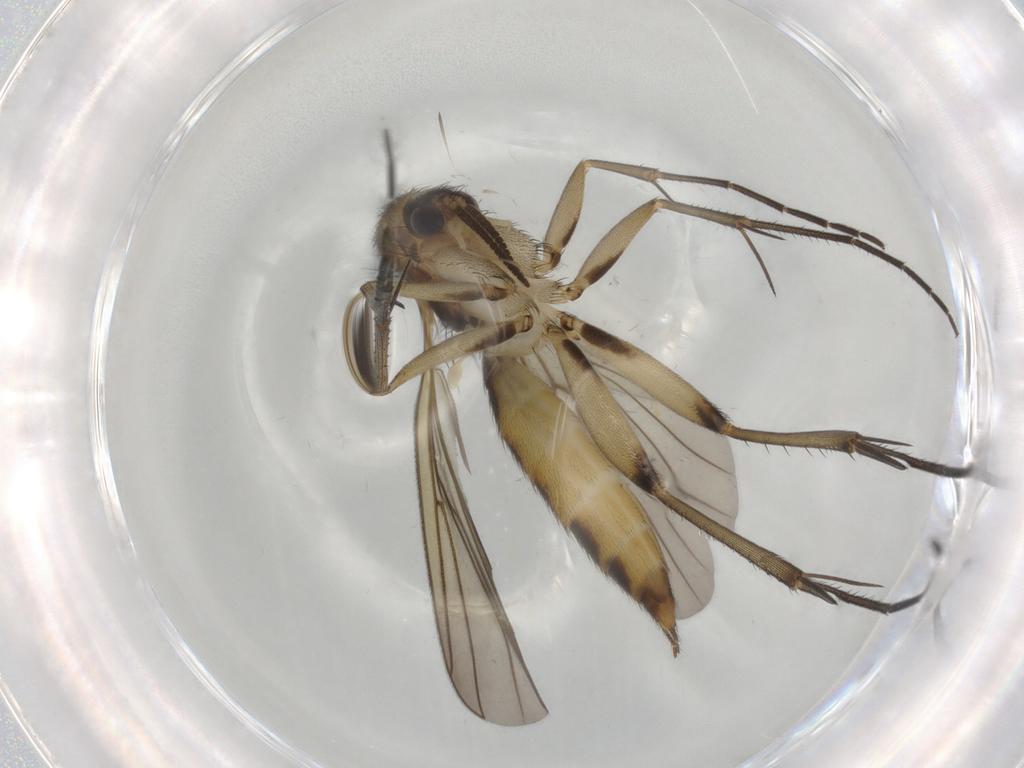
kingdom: Animalia
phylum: Arthropoda
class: Insecta
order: Diptera
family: Mycetophilidae
